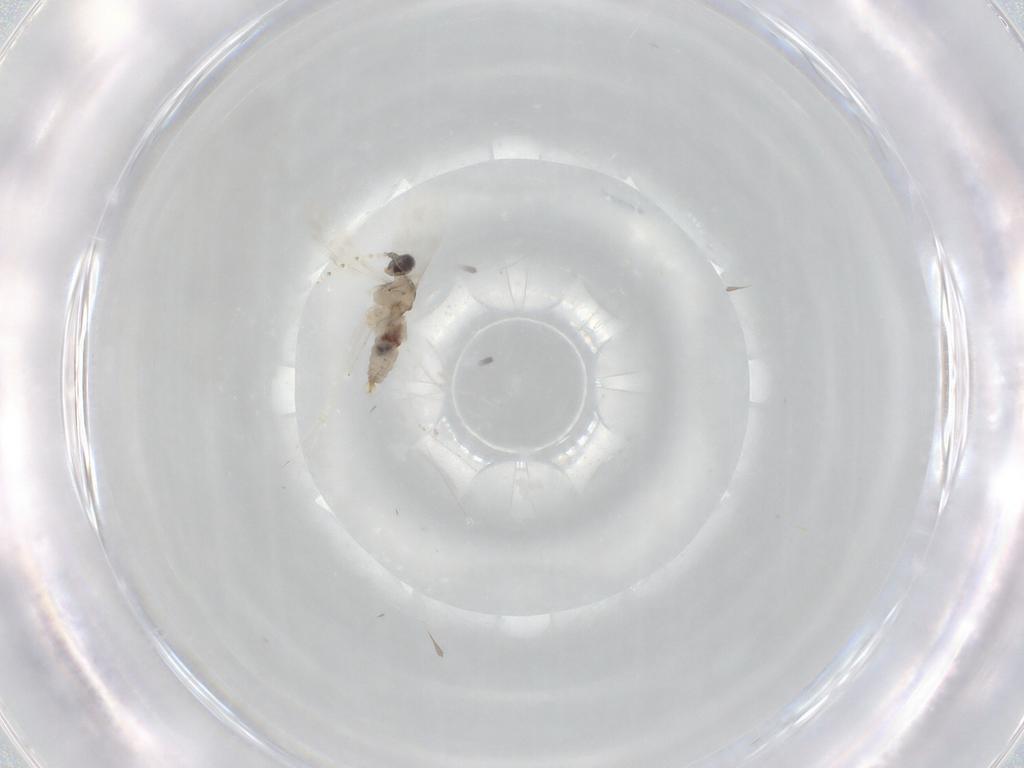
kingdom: Animalia
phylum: Arthropoda
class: Insecta
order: Diptera
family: Cecidomyiidae
